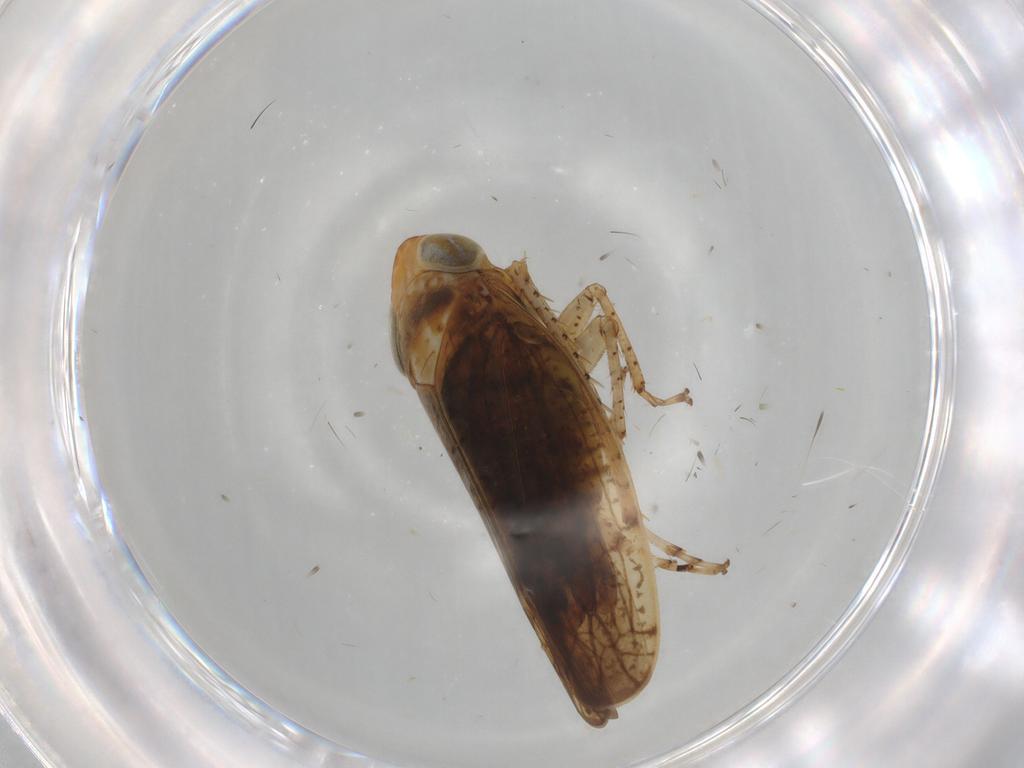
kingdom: Animalia
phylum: Arthropoda
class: Insecta
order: Hemiptera
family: Cicadellidae
